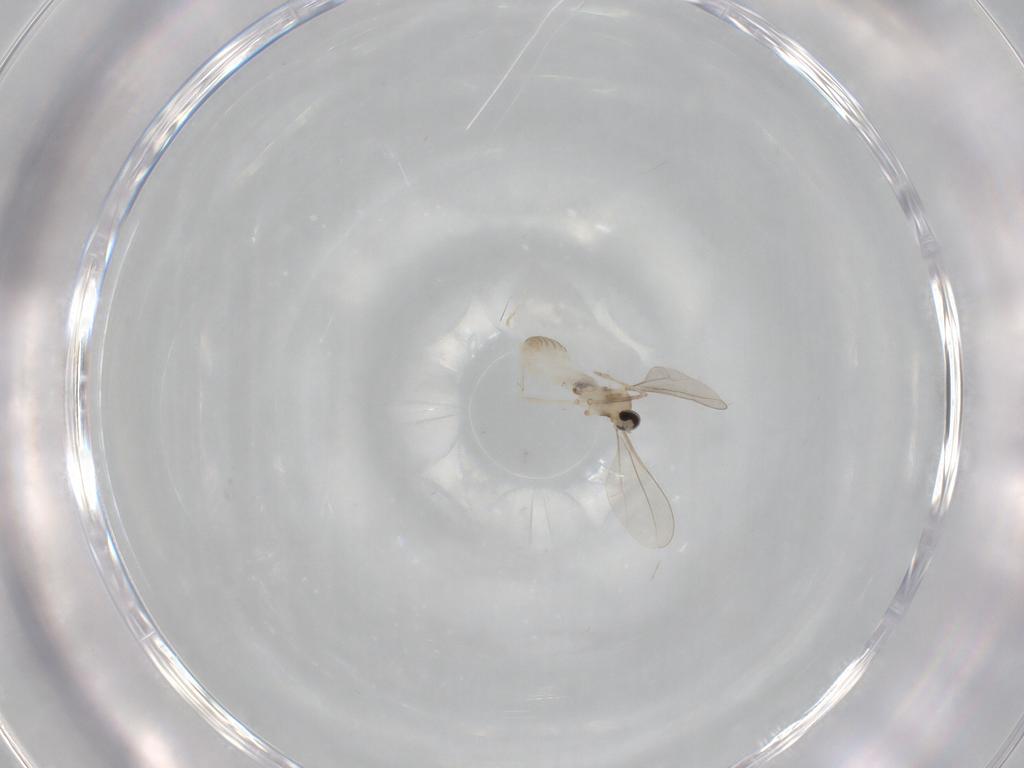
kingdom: Animalia
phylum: Arthropoda
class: Insecta
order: Diptera
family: Cecidomyiidae
